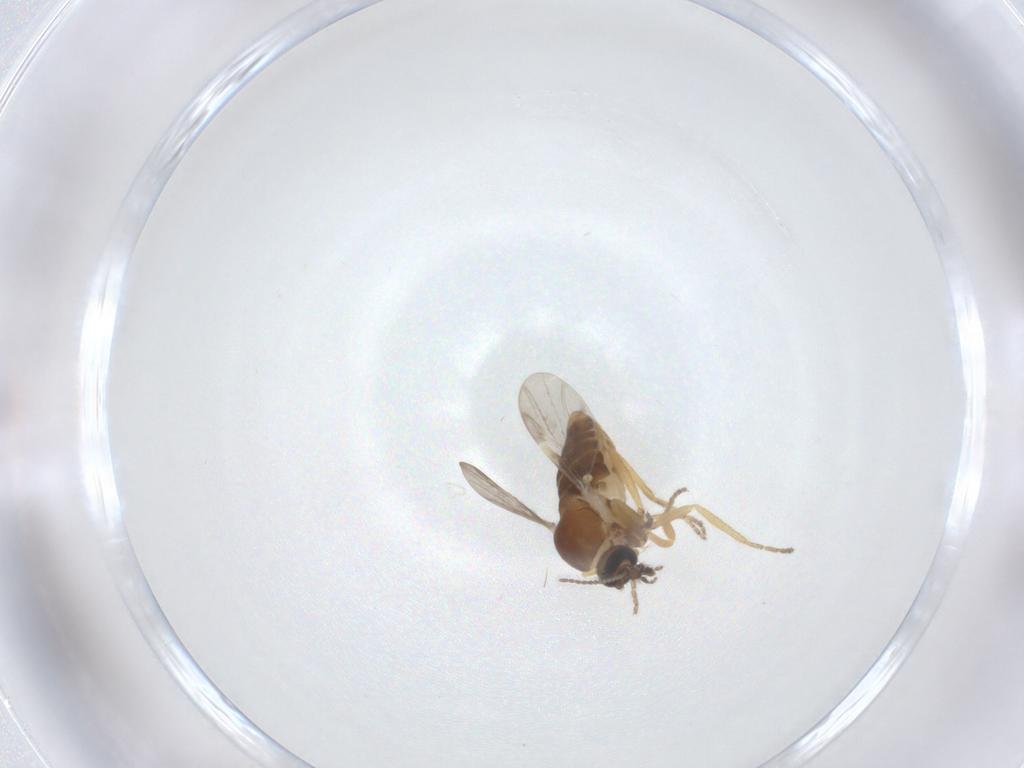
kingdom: Animalia
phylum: Arthropoda
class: Insecta
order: Diptera
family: Ceratopogonidae
